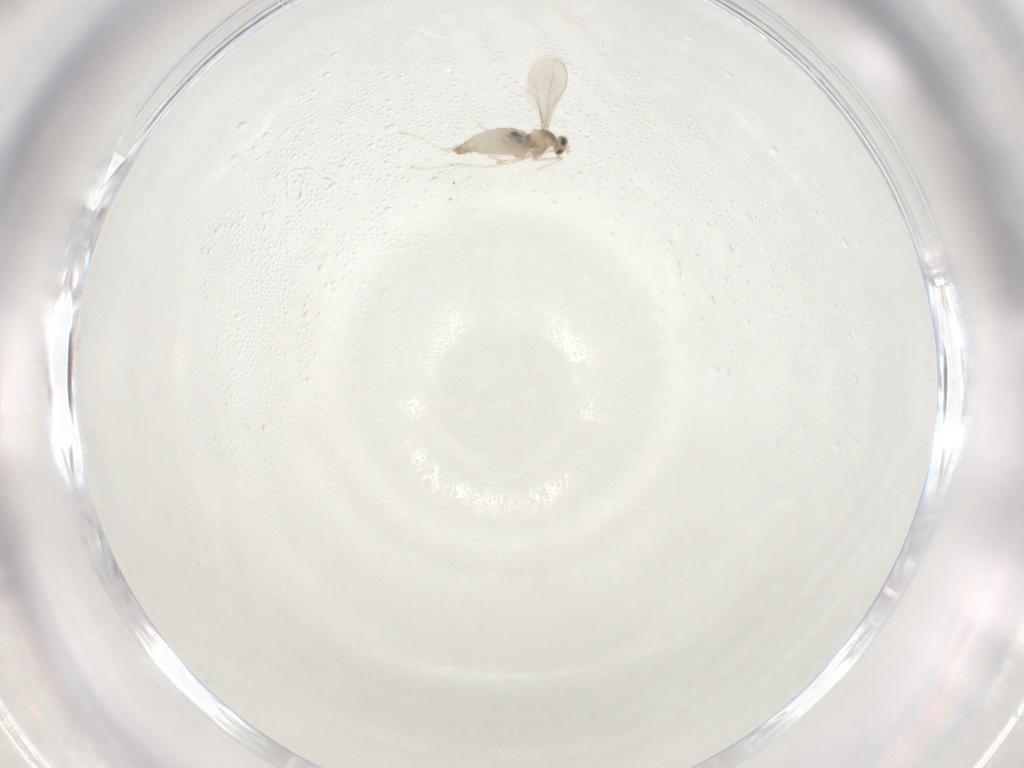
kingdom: Animalia
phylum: Arthropoda
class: Insecta
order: Diptera
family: Cecidomyiidae
